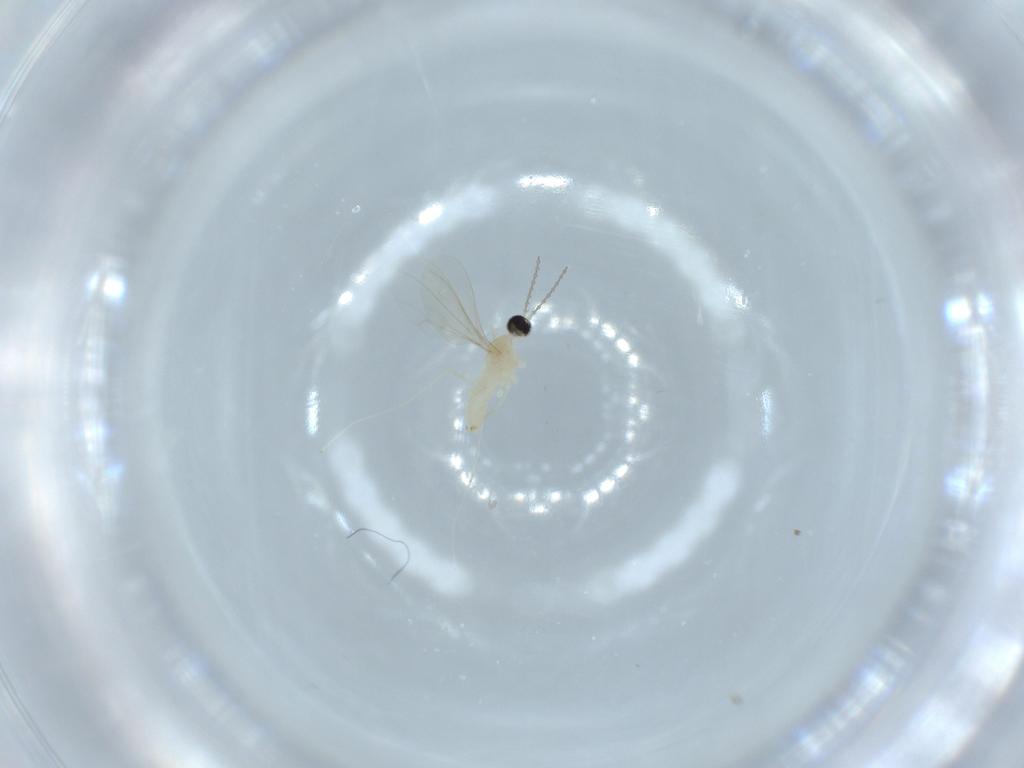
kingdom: Animalia
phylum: Arthropoda
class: Insecta
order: Diptera
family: Cecidomyiidae
